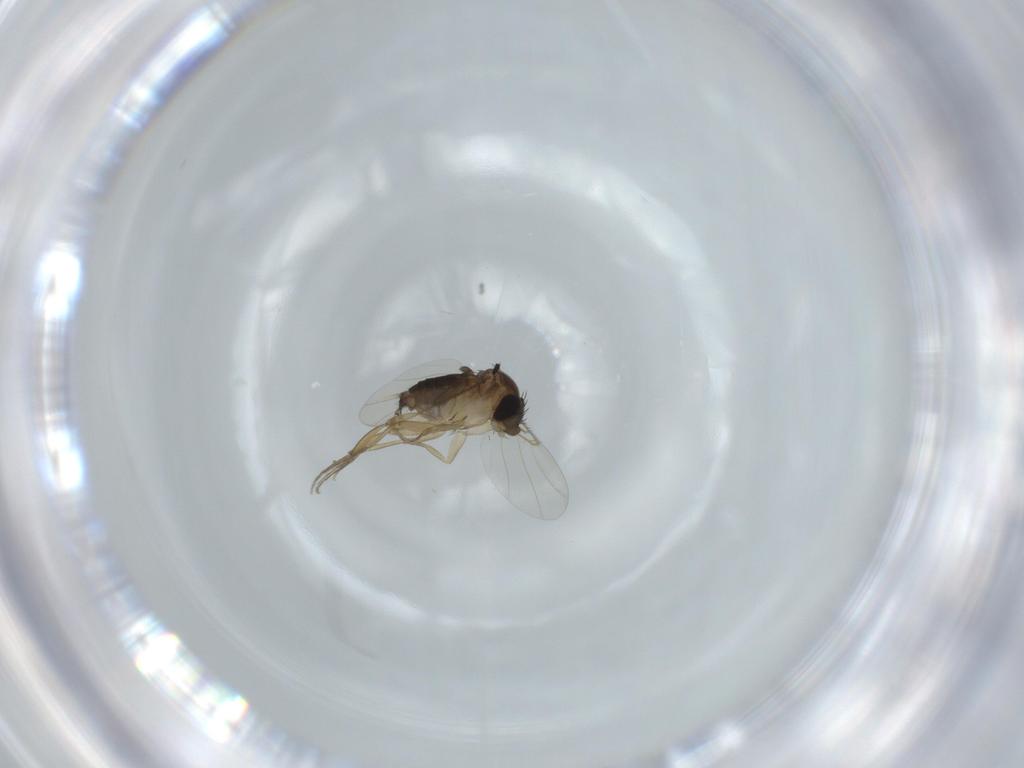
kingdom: Animalia
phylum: Arthropoda
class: Insecta
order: Diptera
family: Phoridae
